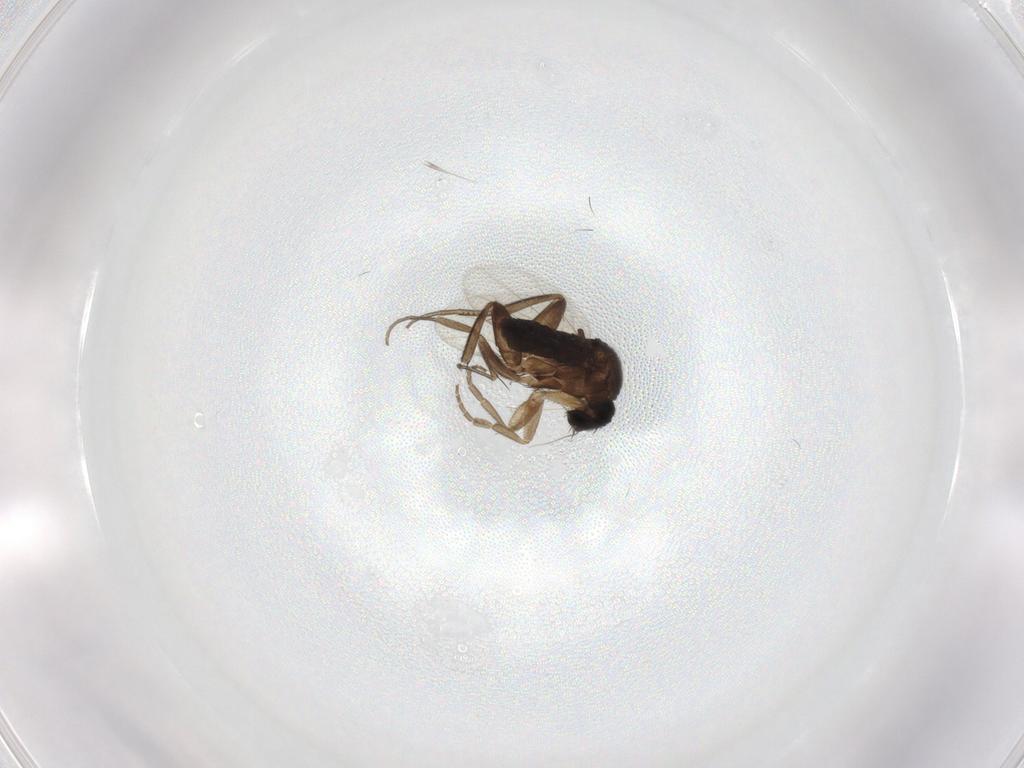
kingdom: Animalia
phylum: Arthropoda
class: Insecta
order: Diptera
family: Phoridae
